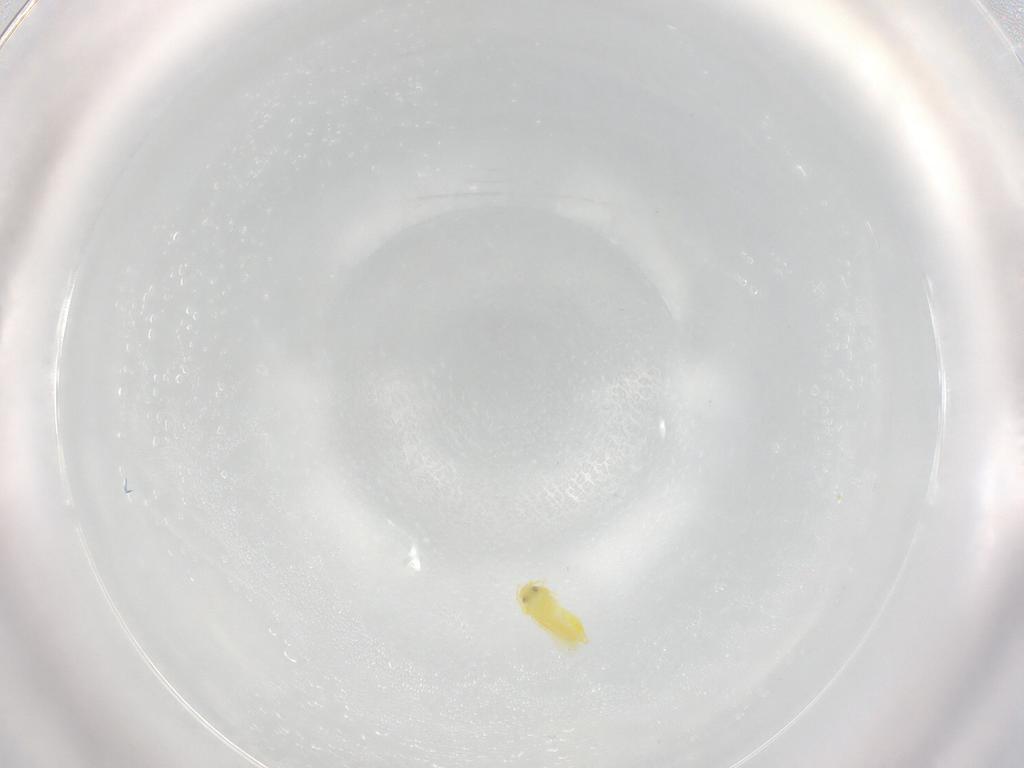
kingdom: Animalia
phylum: Arthropoda
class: Insecta
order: Hemiptera
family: Aleyrodidae
